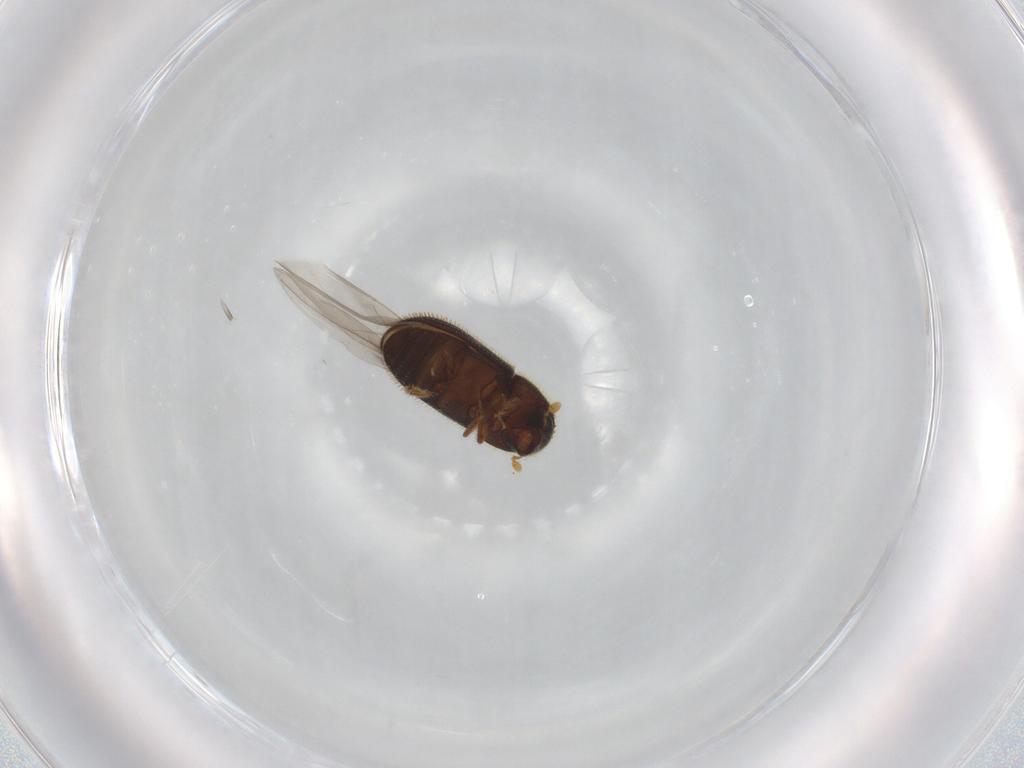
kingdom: Animalia
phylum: Arthropoda
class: Insecta
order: Coleoptera
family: Curculionidae
